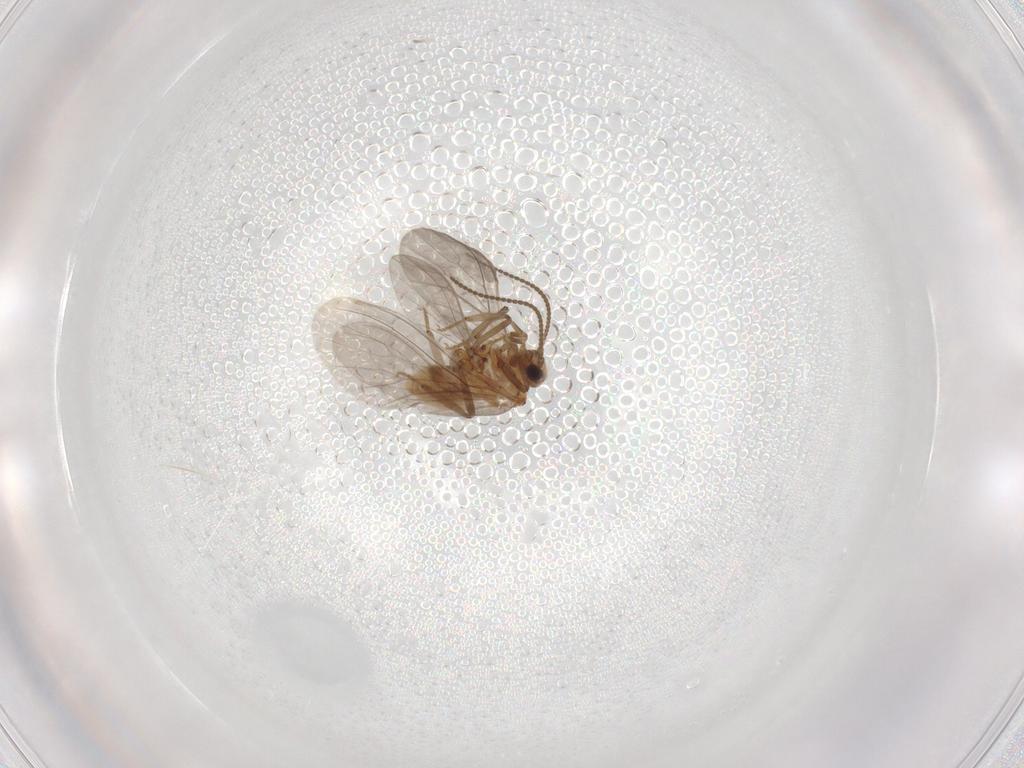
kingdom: Animalia
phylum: Arthropoda
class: Insecta
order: Neuroptera
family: Coniopterygidae
